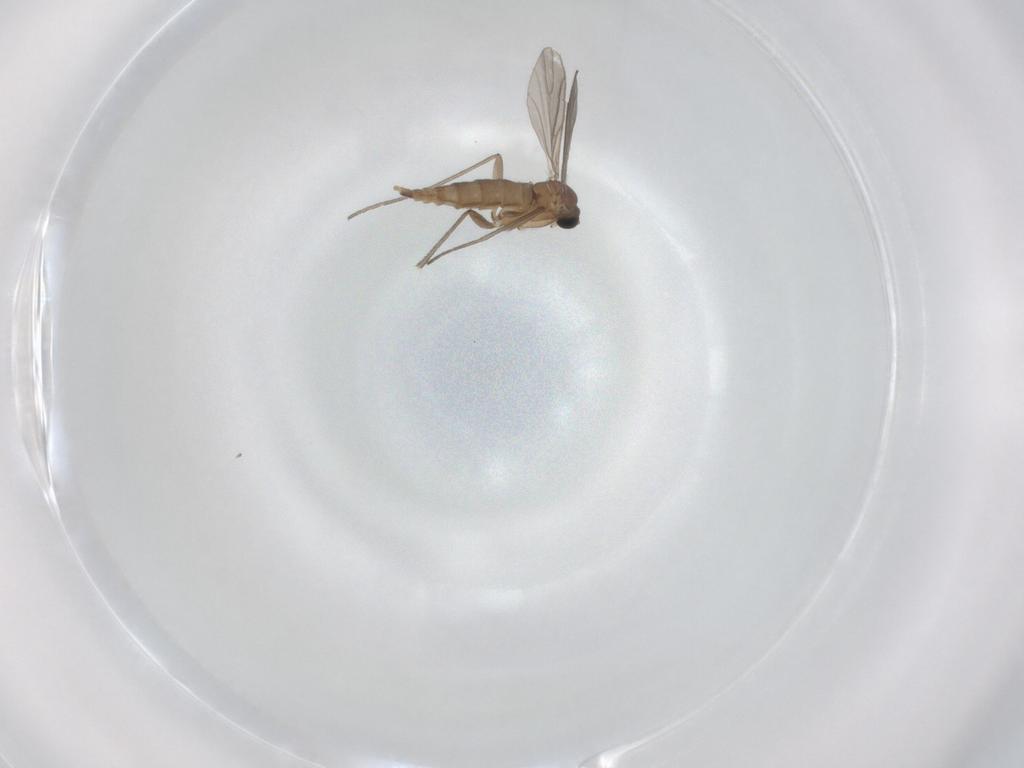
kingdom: Animalia
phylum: Arthropoda
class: Insecta
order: Diptera
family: Sciaridae
